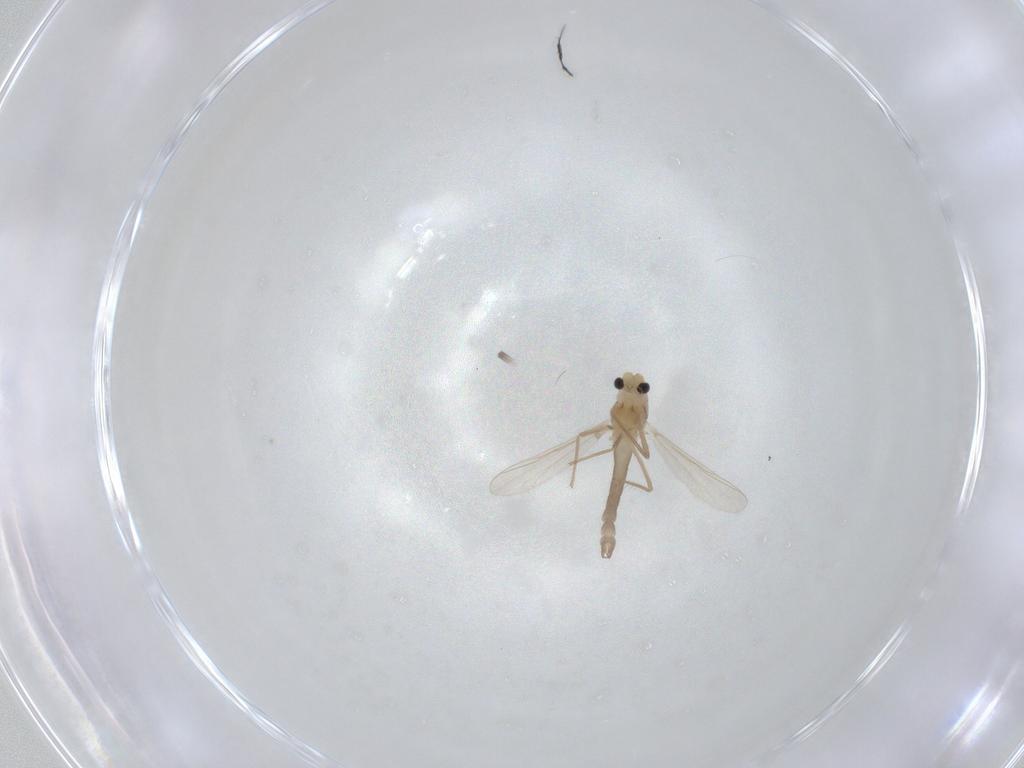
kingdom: Animalia
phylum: Arthropoda
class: Insecta
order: Diptera
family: Chironomidae
